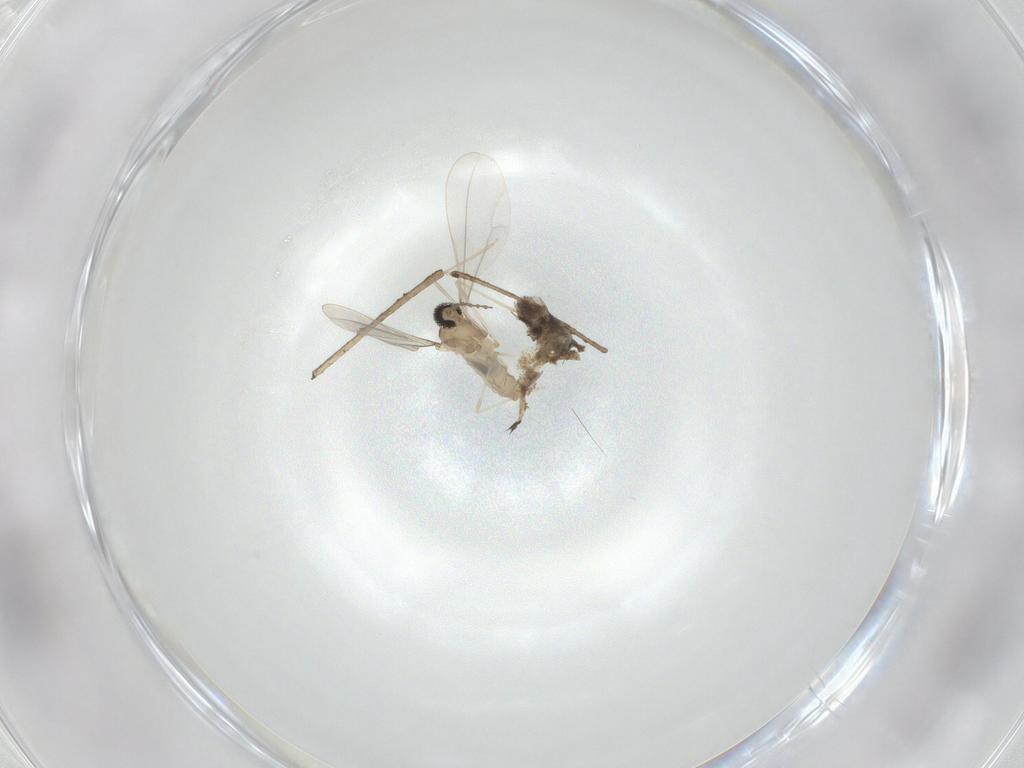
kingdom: Animalia
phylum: Arthropoda
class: Insecta
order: Diptera
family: Cecidomyiidae
